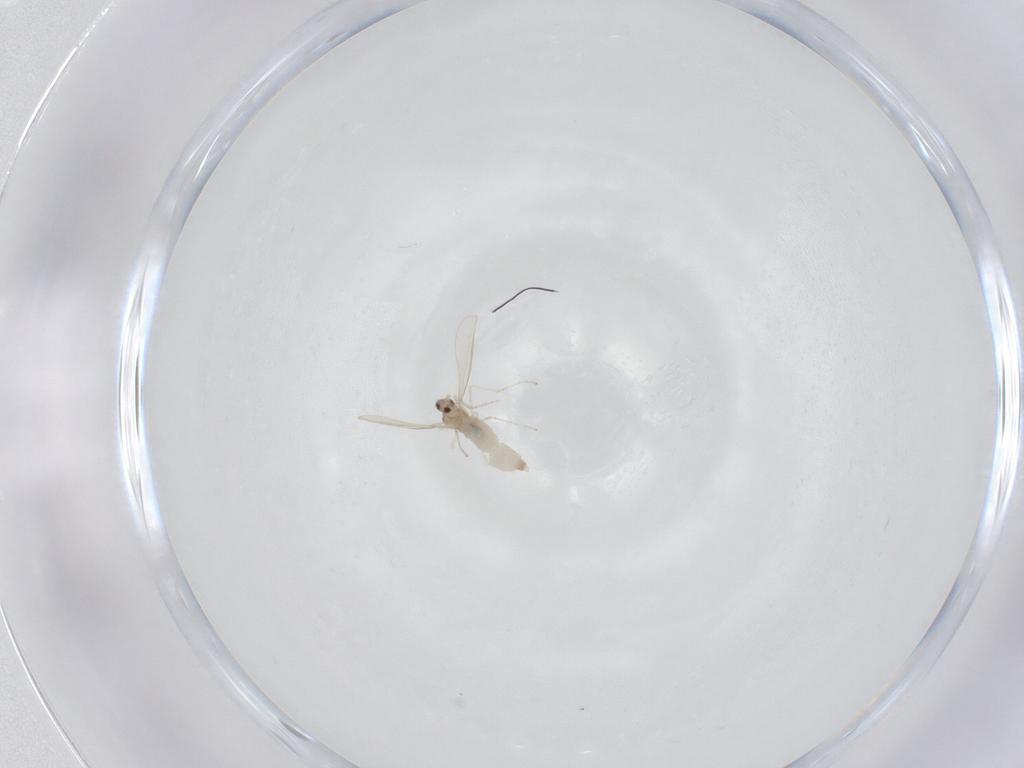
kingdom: Animalia
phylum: Arthropoda
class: Insecta
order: Diptera
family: Cecidomyiidae
